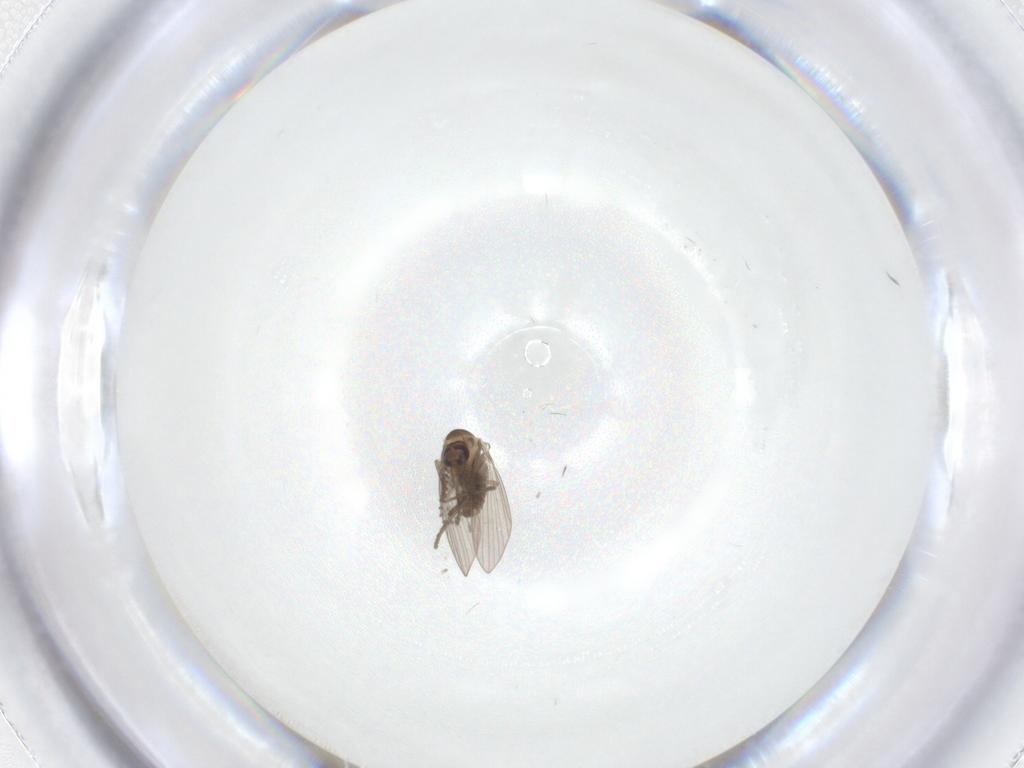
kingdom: Animalia
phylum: Arthropoda
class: Insecta
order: Diptera
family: Psychodidae
